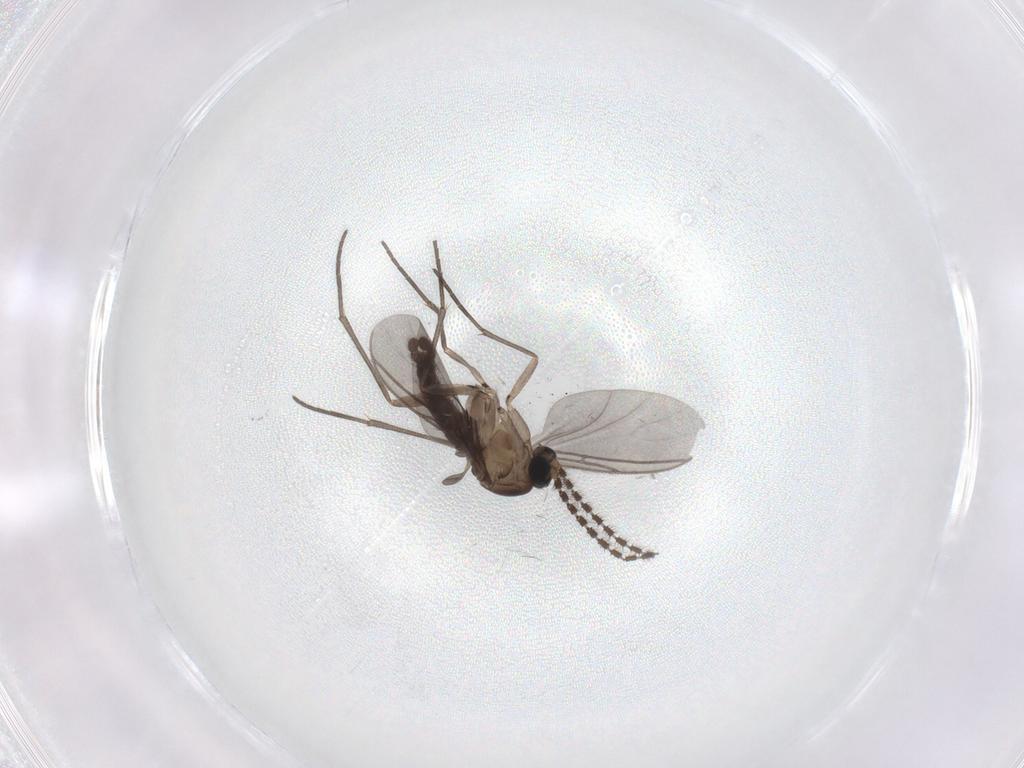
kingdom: Animalia
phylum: Arthropoda
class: Insecta
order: Diptera
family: Sciaridae
